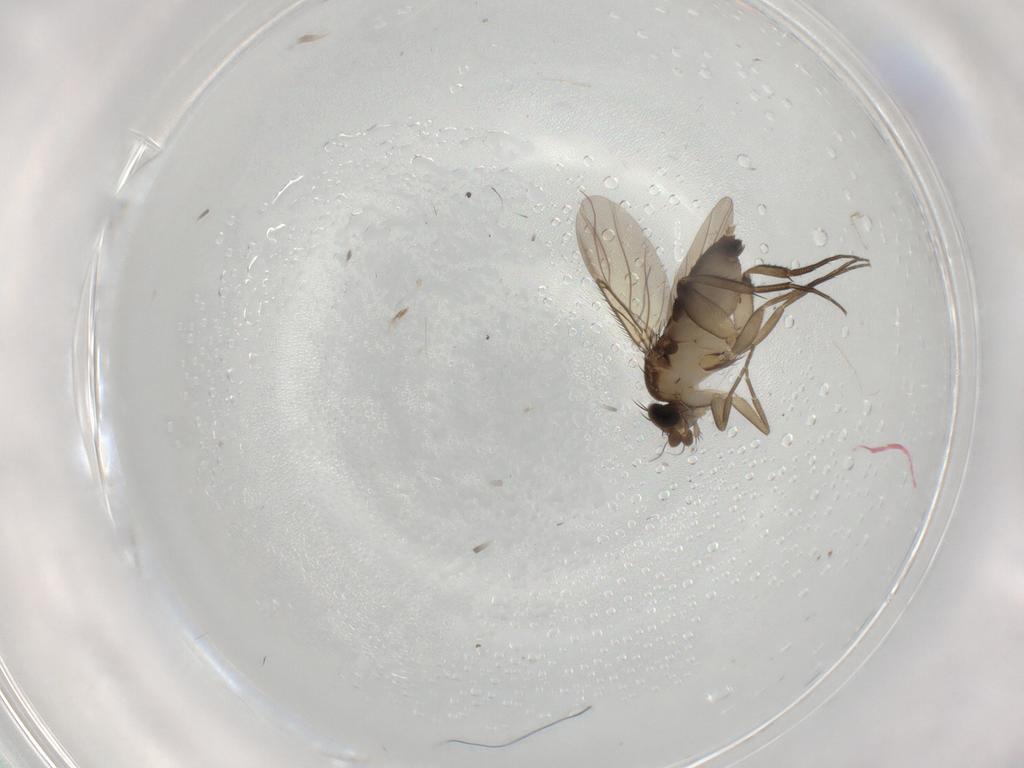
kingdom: Animalia
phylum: Arthropoda
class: Insecta
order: Diptera
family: Phoridae
